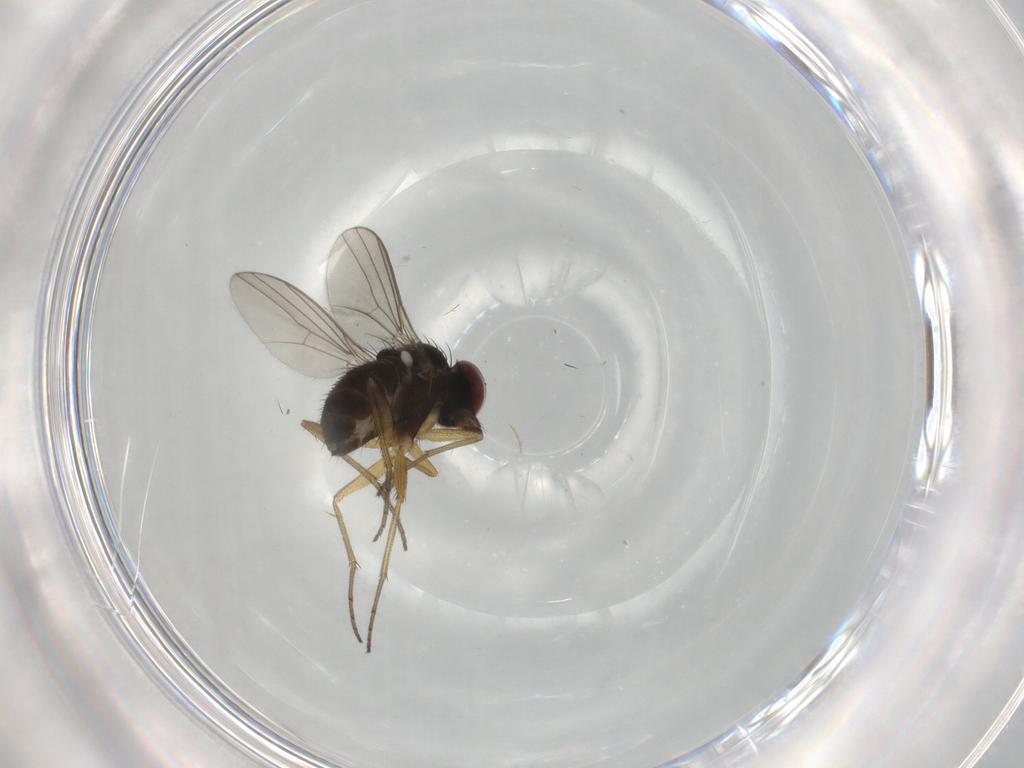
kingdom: Animalia
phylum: Arthropoda
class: Insecta
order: Diptera
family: Dolichopodidae
